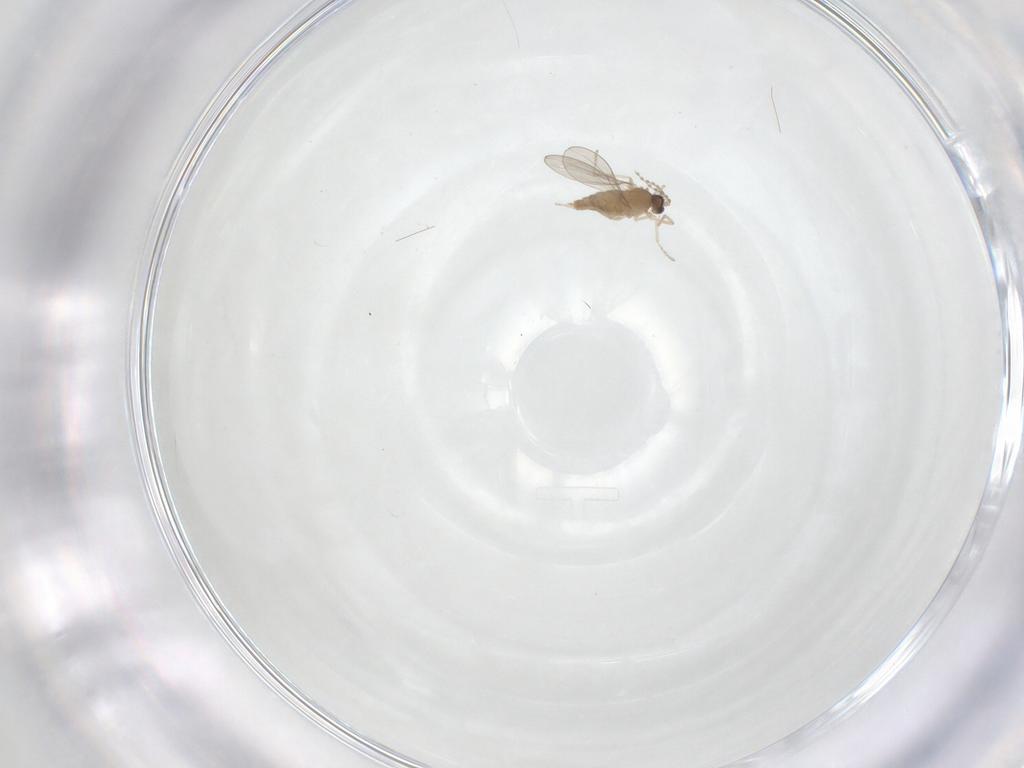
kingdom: Animalia
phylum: Arthropoda
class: Insecta
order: Diptera
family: Cecidomyiidae
